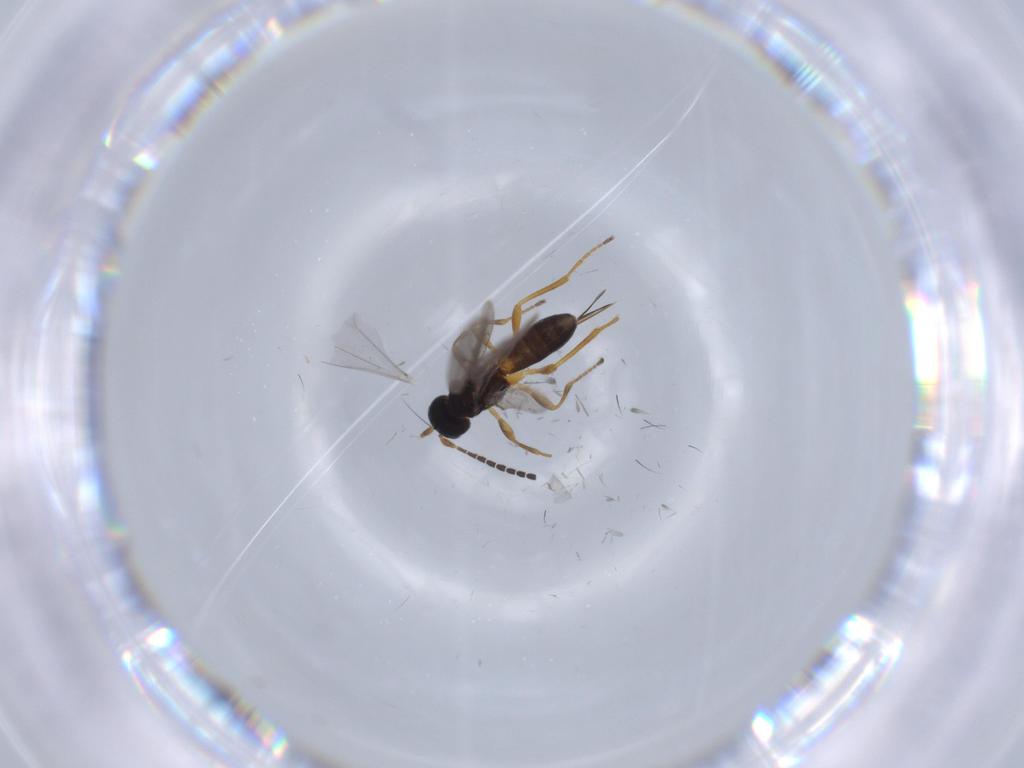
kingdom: Animalia
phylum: Arthropoda
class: Insecta
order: Hymenoptera
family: Braconidae
